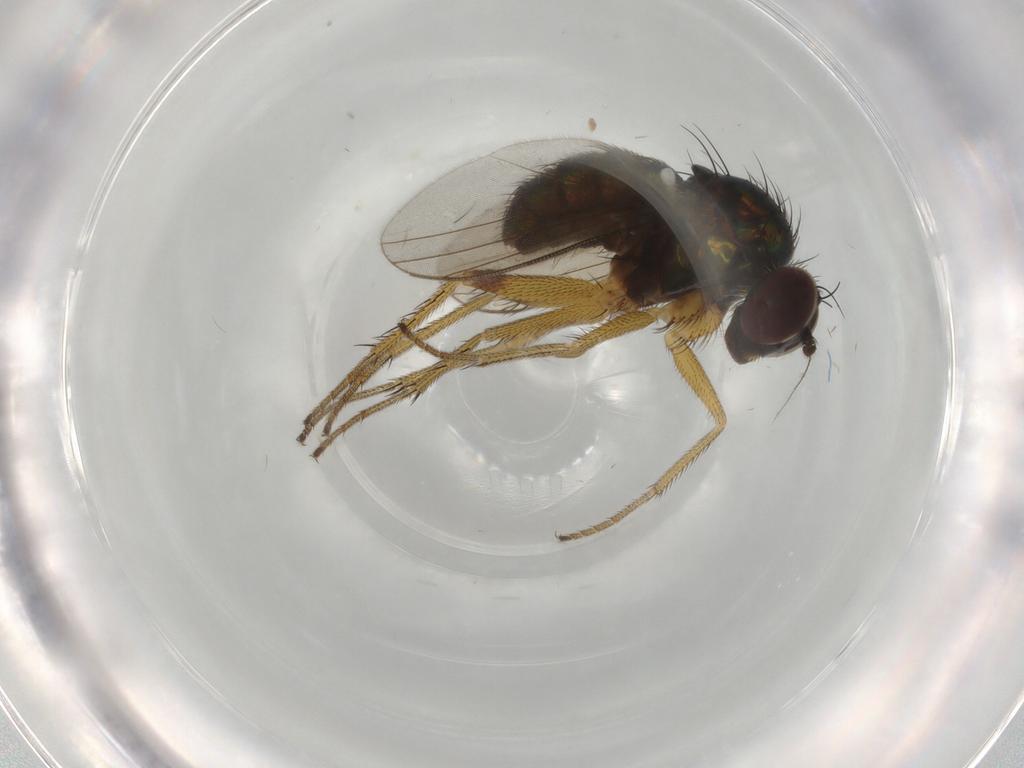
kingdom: Animalia
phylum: Arthropoda
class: Insecta
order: Diptera
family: Dolichopodidae
